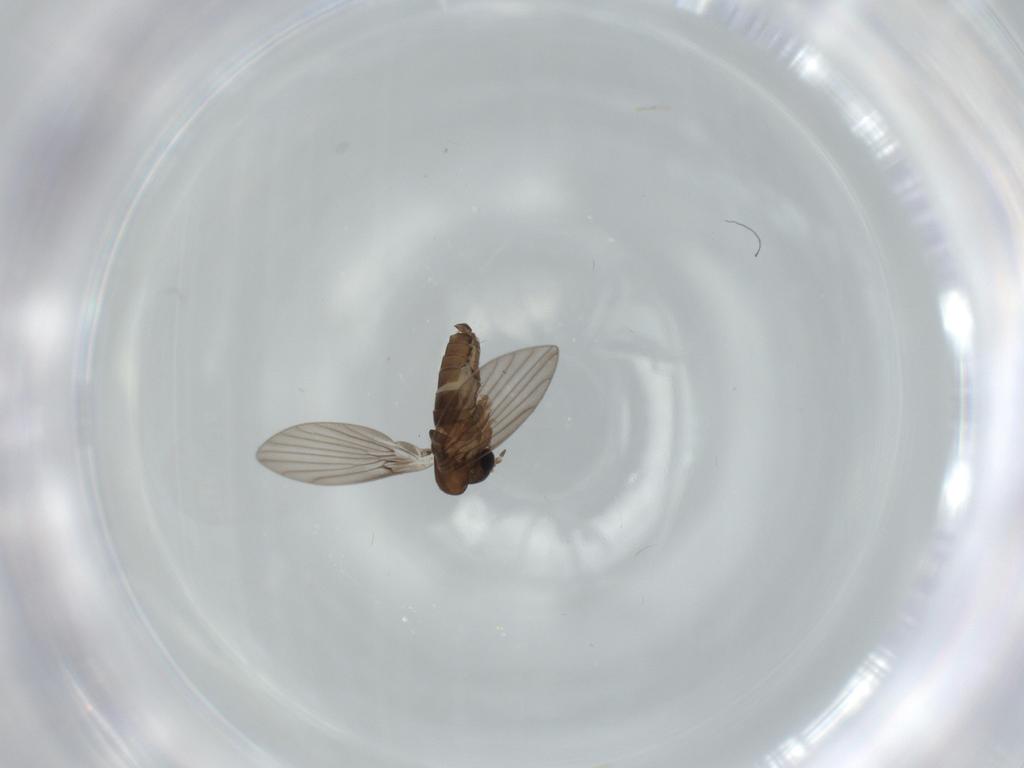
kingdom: Animalia
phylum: Arthropoda
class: Insecta
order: Diptera
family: Psychodidae
